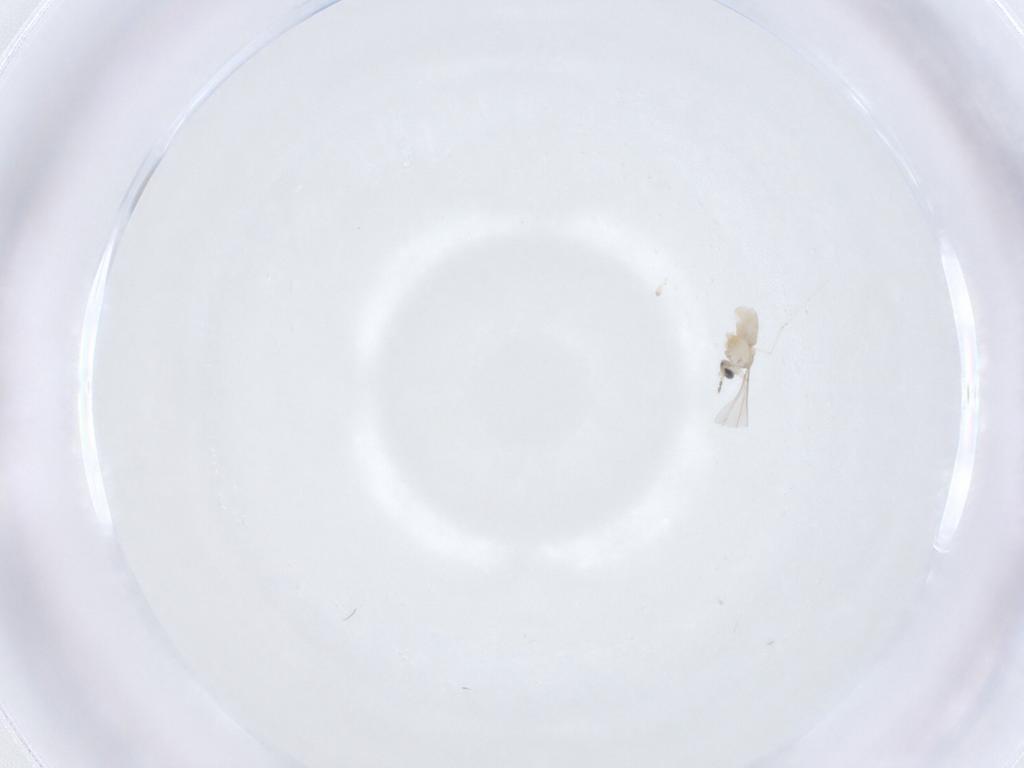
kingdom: Animalia
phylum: Arthropoda
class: Insecta
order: Diptera
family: Cecidomyiidae
